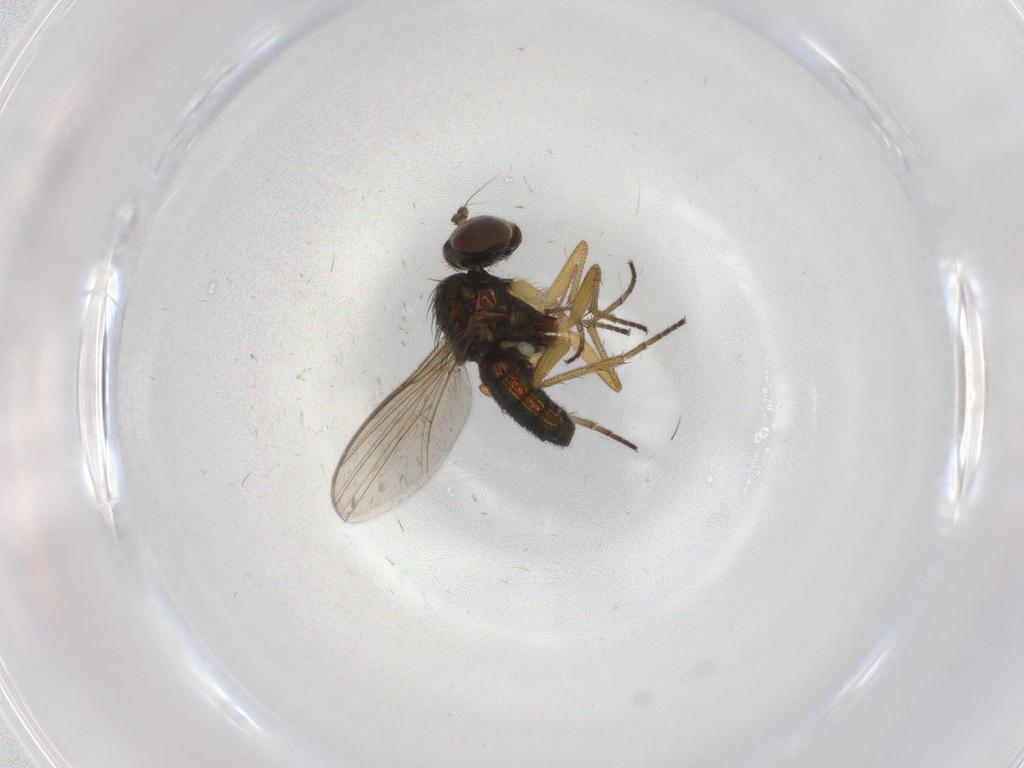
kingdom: Animalia
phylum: Arthropoda
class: Insecta
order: Diptera
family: Ceratopogonidae
